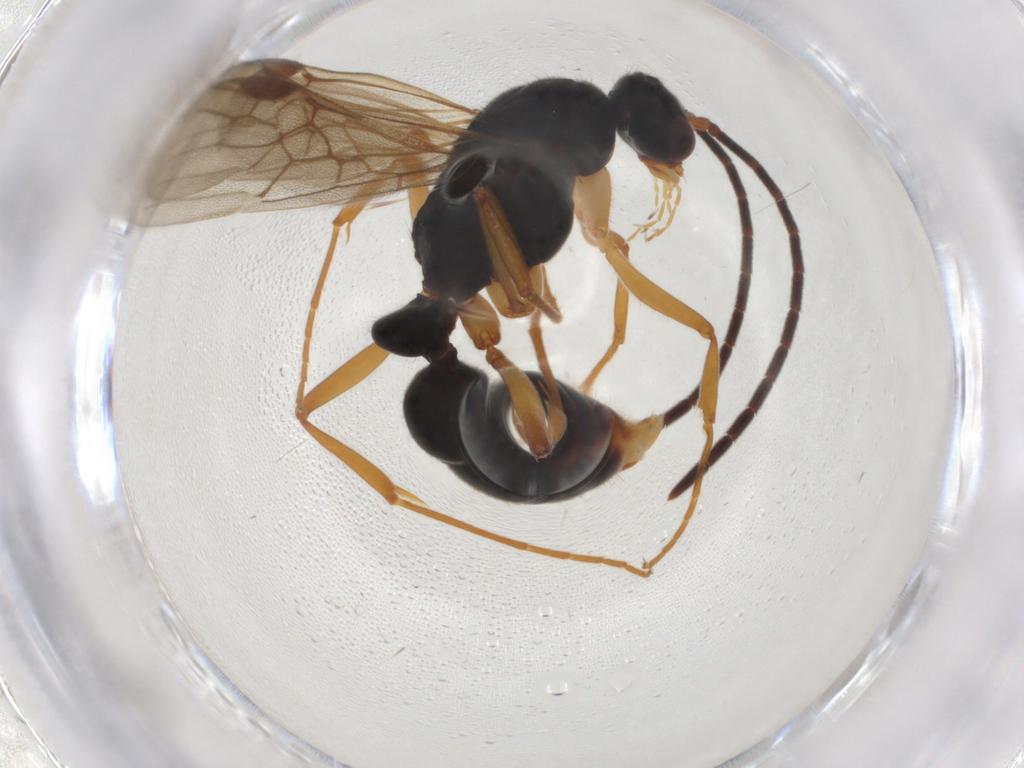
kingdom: Animalia
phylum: Arthropoda
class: Insecta
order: Hymenoptera
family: Formicidae
